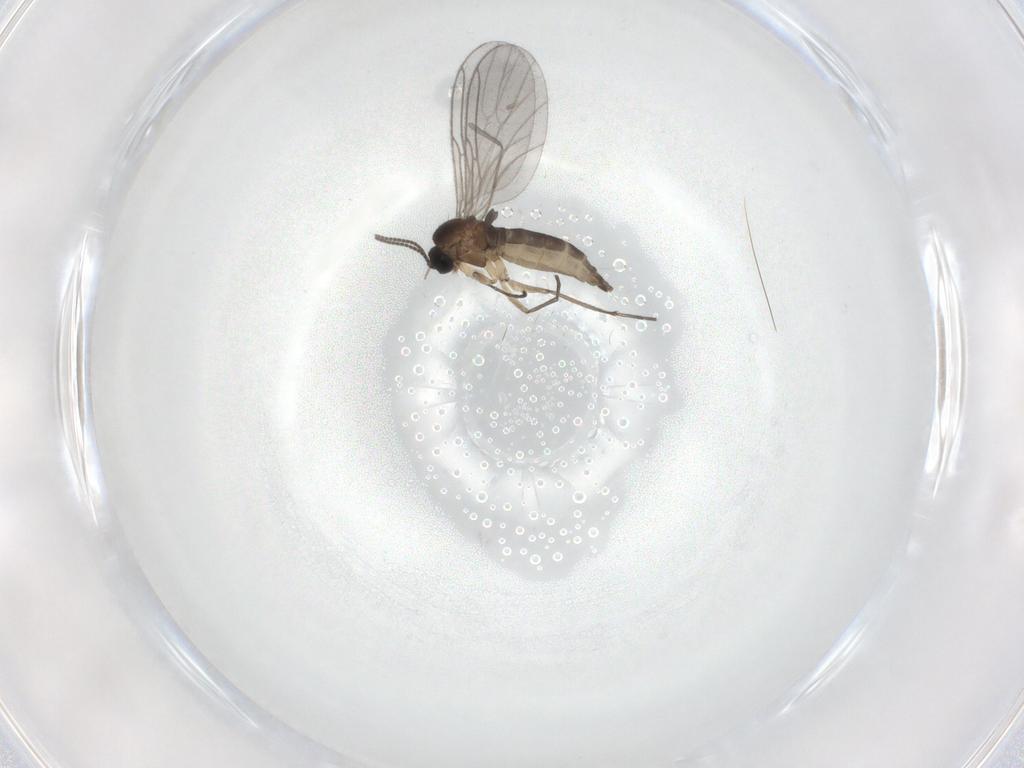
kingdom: Animalia
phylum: Arthropoda
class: Insecta
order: Diptera
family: Sciaridae
